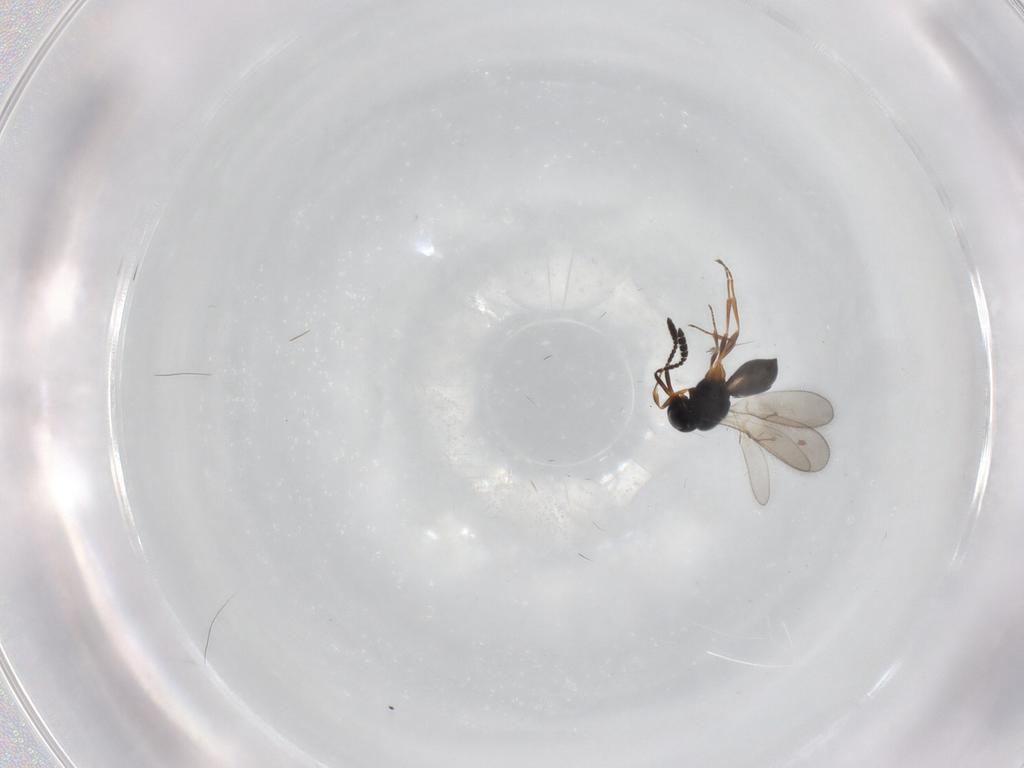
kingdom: Animalia
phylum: Arthropoda
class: Insecta
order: Hymenoptera
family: Scelionidae
